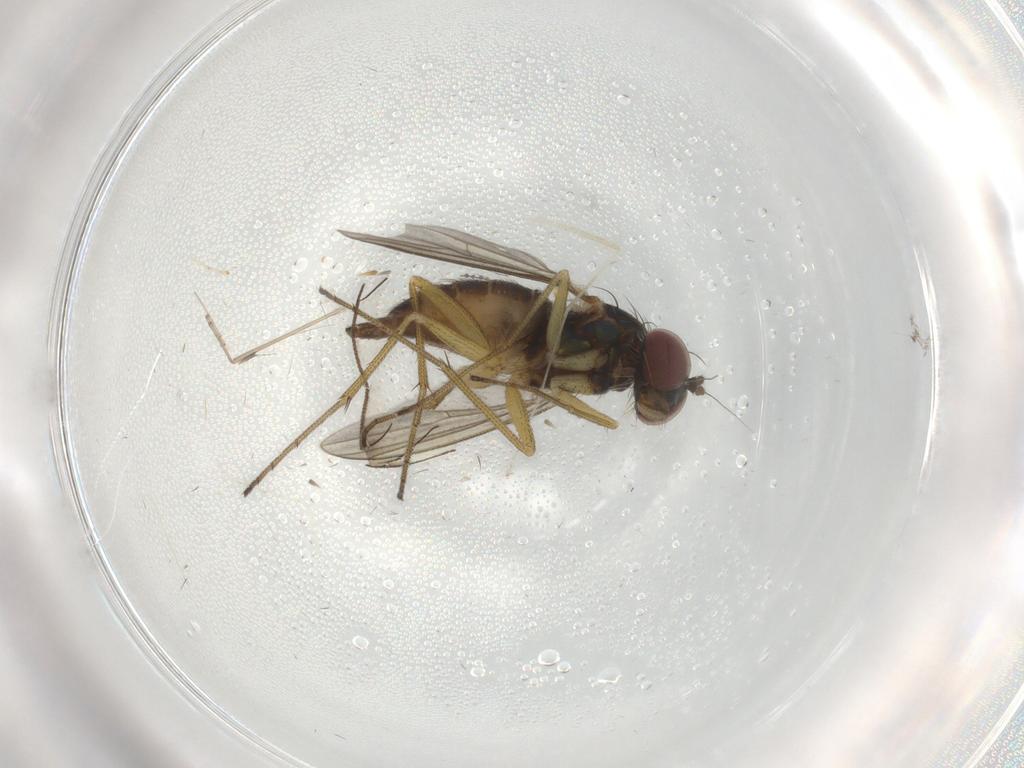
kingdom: Animalia
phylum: Arthropoda
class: Insecta
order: Diptera
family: Dolichopodidae
